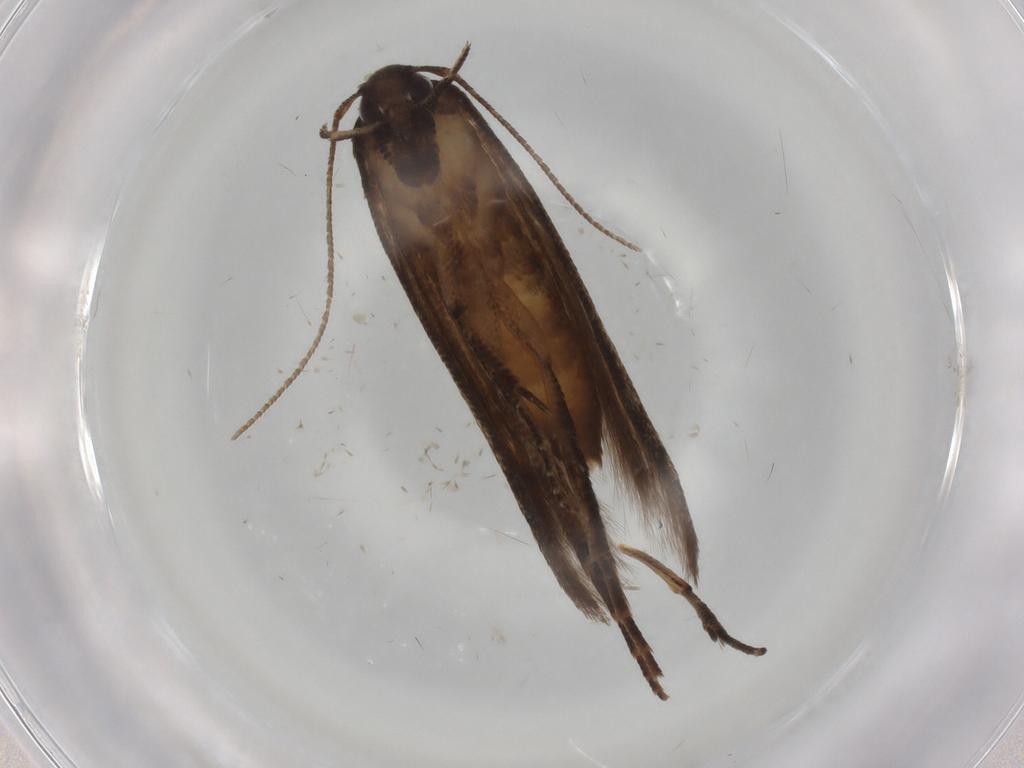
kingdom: Animalia
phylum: Arthropoda
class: Insecta
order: Lepidoptera
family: Cosmopterigidae
